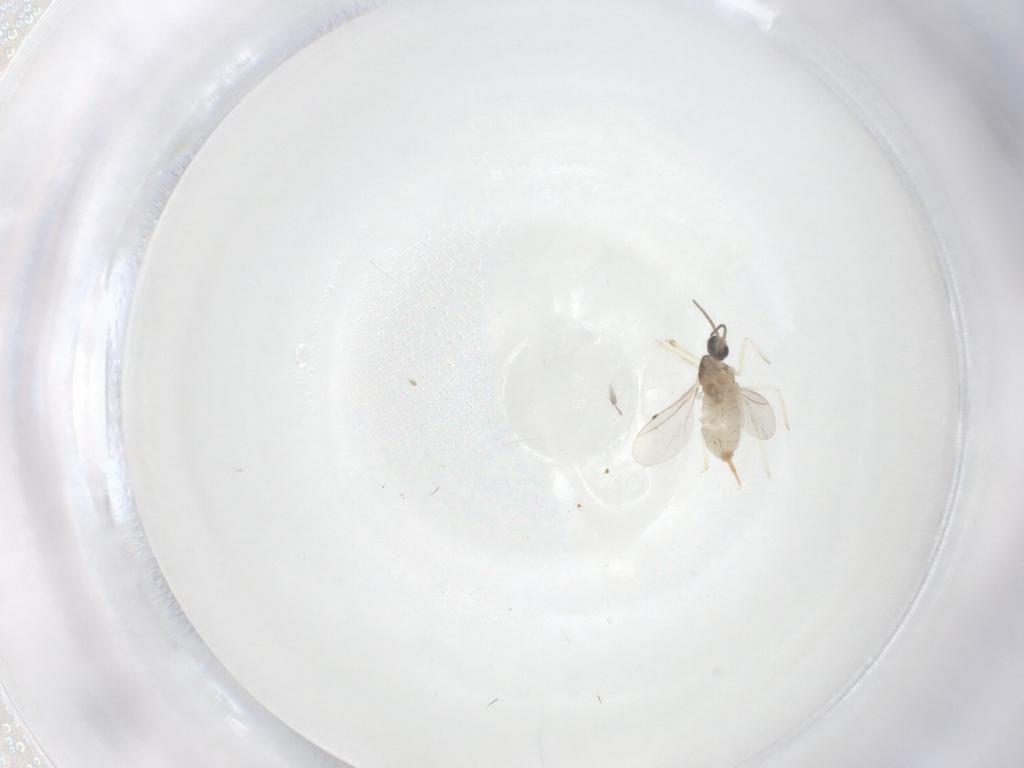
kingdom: Animalia
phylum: Arthropoda
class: Insecta
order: Diptera
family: Cecidomyiidae
